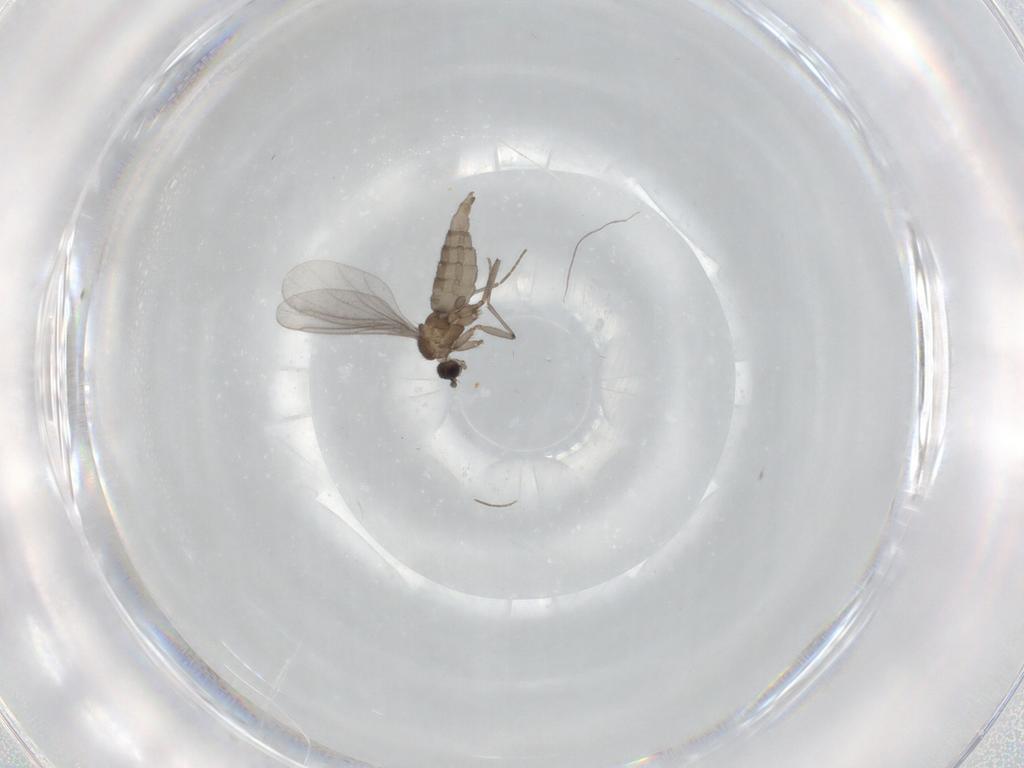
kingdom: Animalia
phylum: Arthropoda
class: Insecta
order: Diptera
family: Sciaridae
